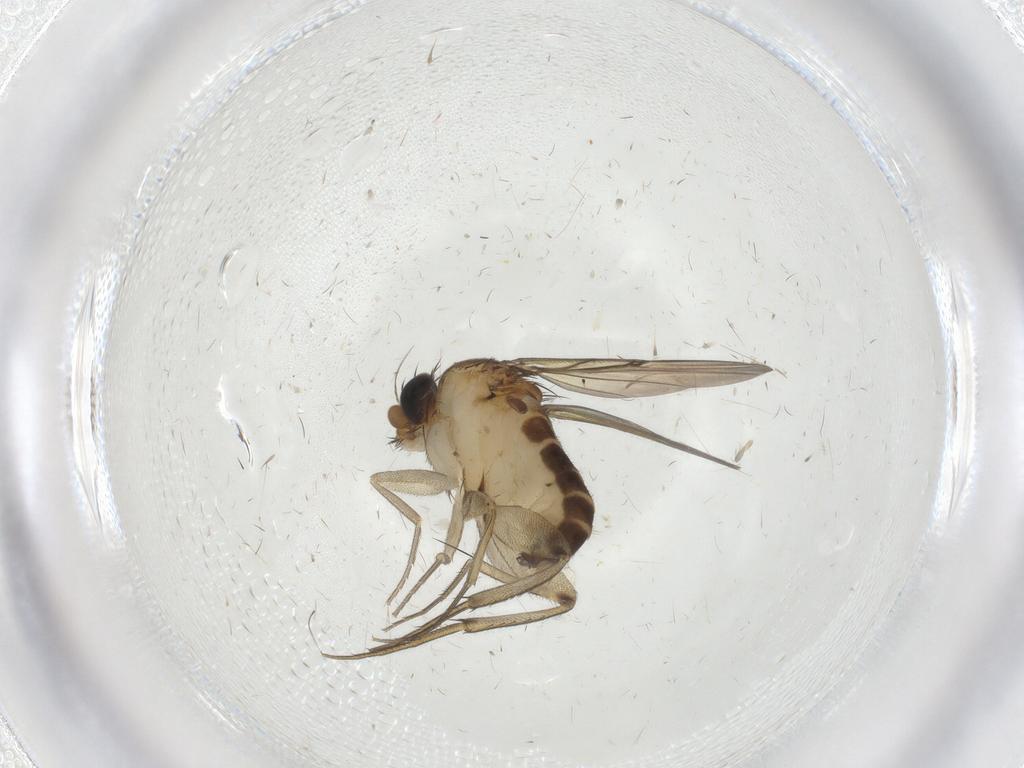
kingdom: Animalia
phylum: Arthropoda
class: Insecta
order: Diptera
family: Phoridae
